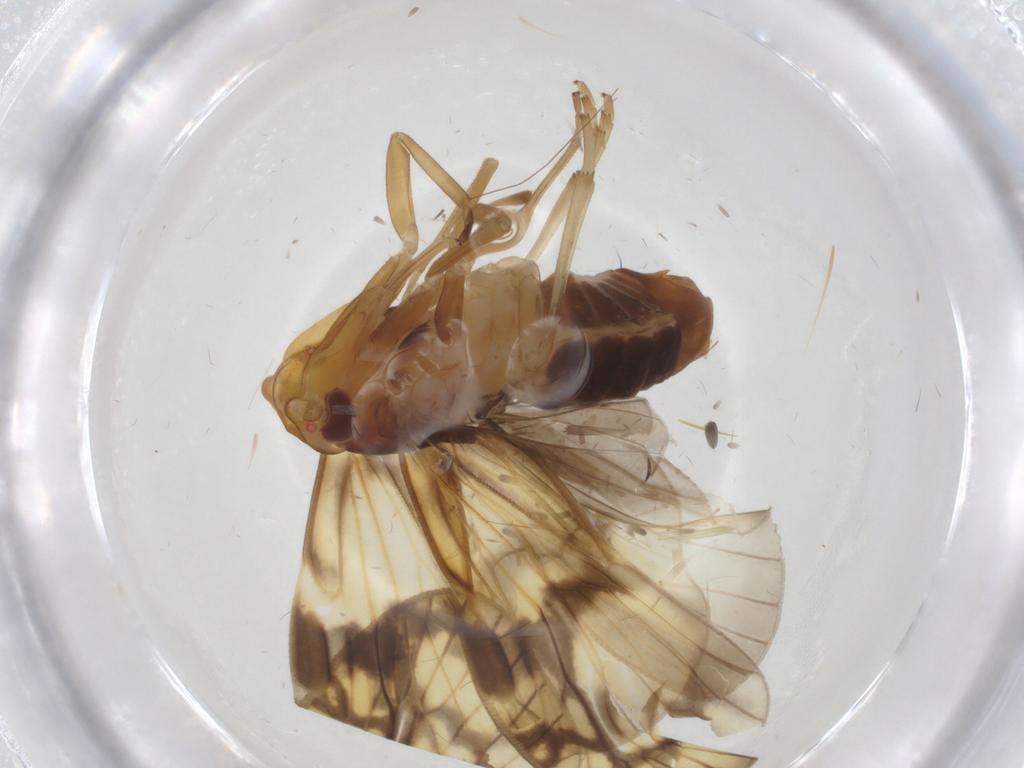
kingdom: Animalia
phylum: Arthropoda
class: Insecta
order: Hemiptera
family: Cixiidae
